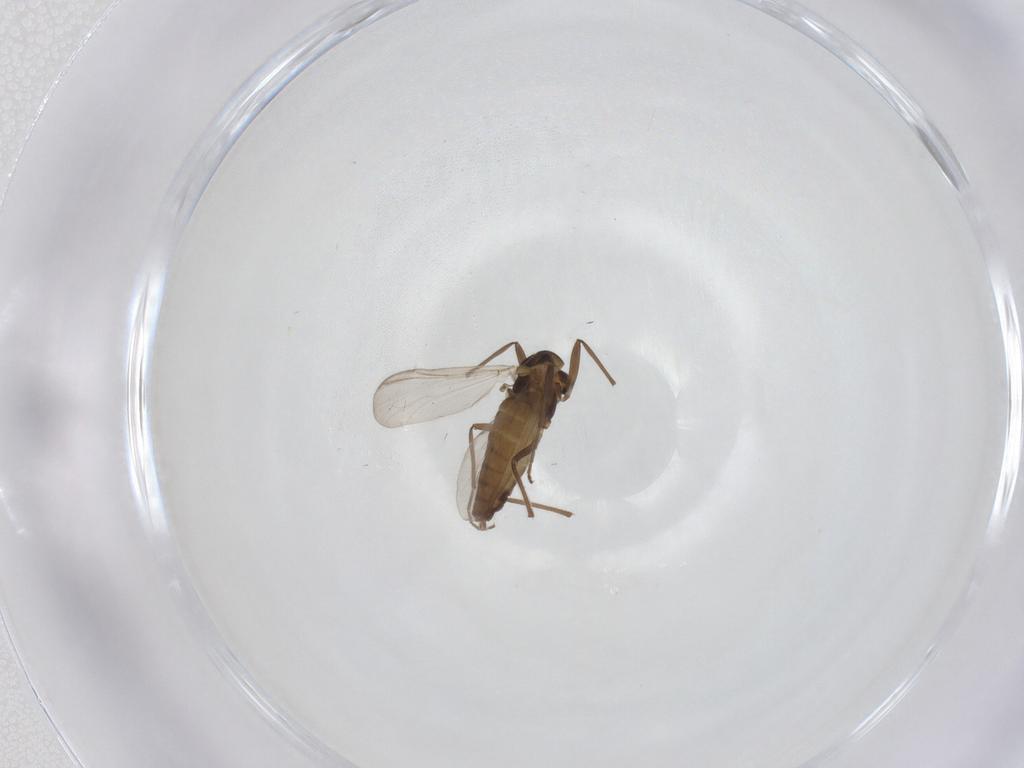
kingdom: Animalia
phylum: Arthropoda
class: Insecta
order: Diptera
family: Chironomidae
